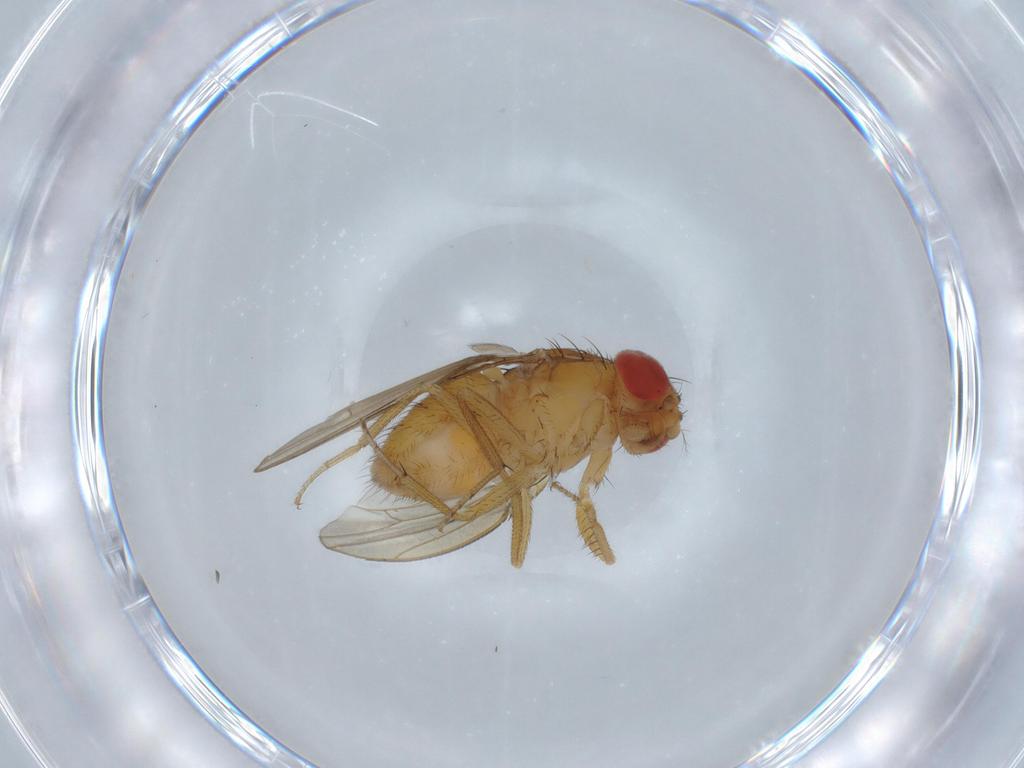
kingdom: Animalia
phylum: Arthropoda
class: Insecta
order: Diptera
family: Drosophilidae
